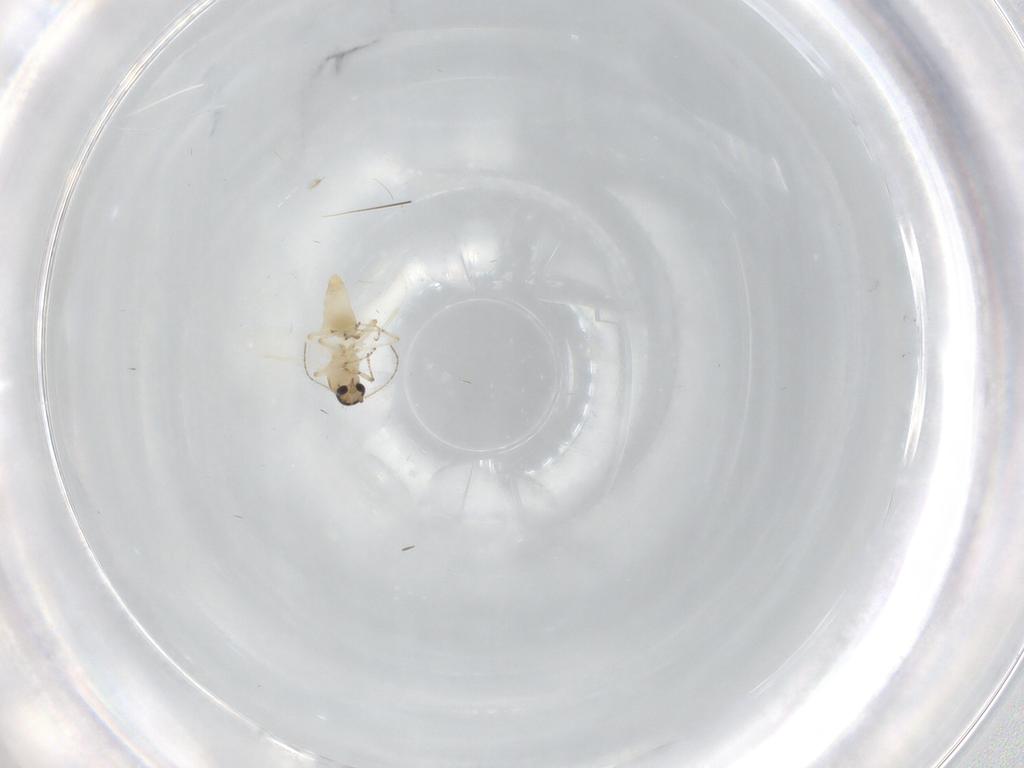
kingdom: Animalia
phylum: Arthropoda
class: Insecta
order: Diptera
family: Chironomidae
